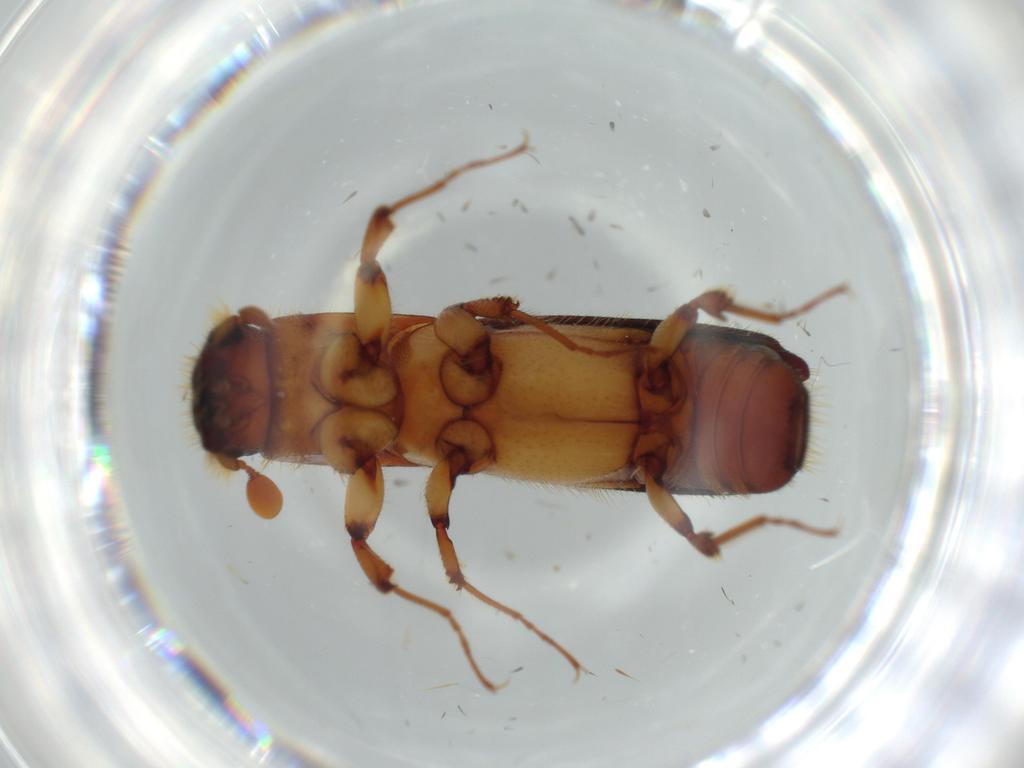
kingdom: Animalia
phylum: Arthropoda
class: Insecta
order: Coleoptera
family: Curculionidae
